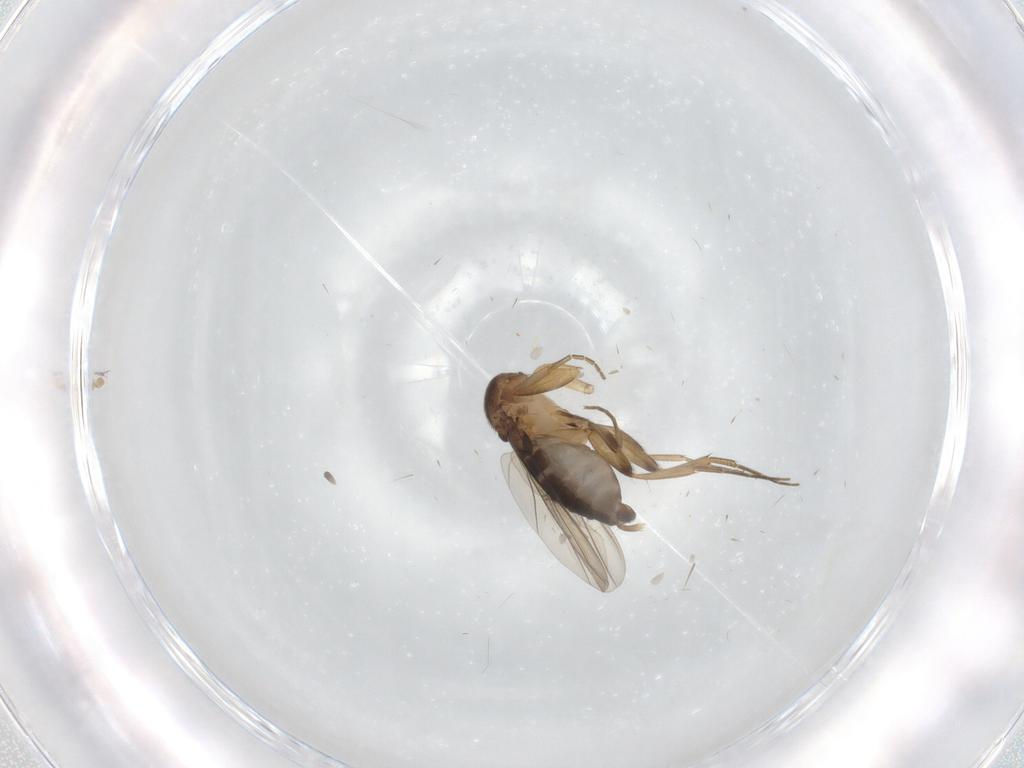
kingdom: Animalia
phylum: Arthropoda
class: Insecta
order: Diptera
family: Phoridae
